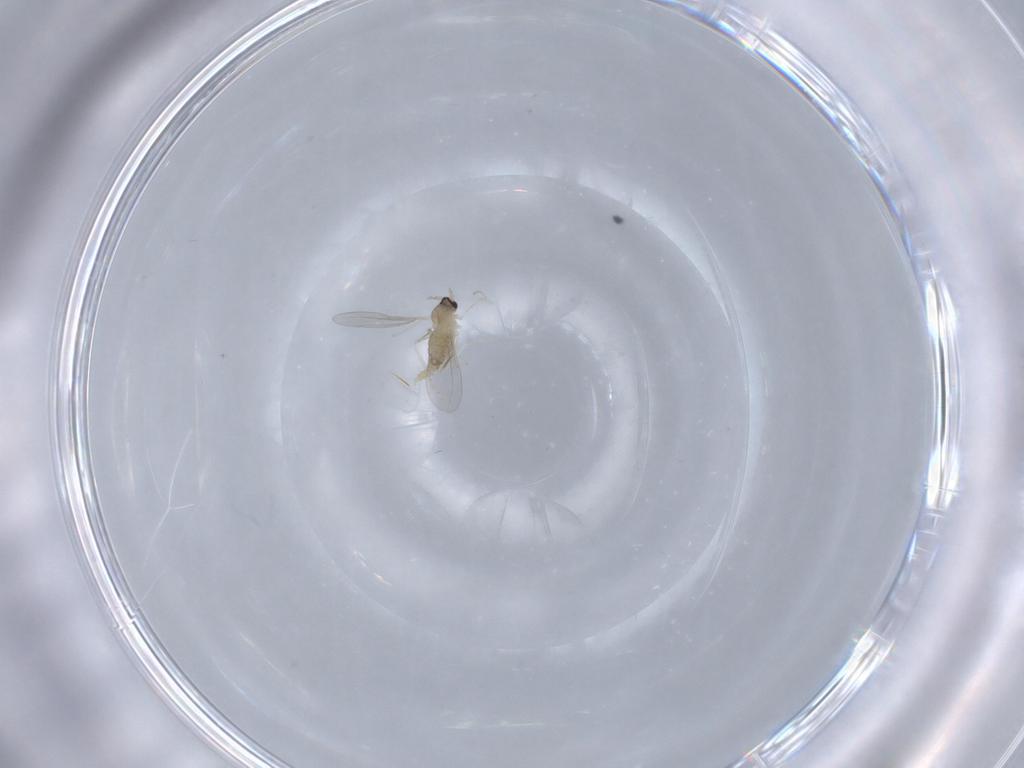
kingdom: Animalia
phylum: Arthropoda
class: Insecta
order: Diptera
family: Cecidomyiidae
